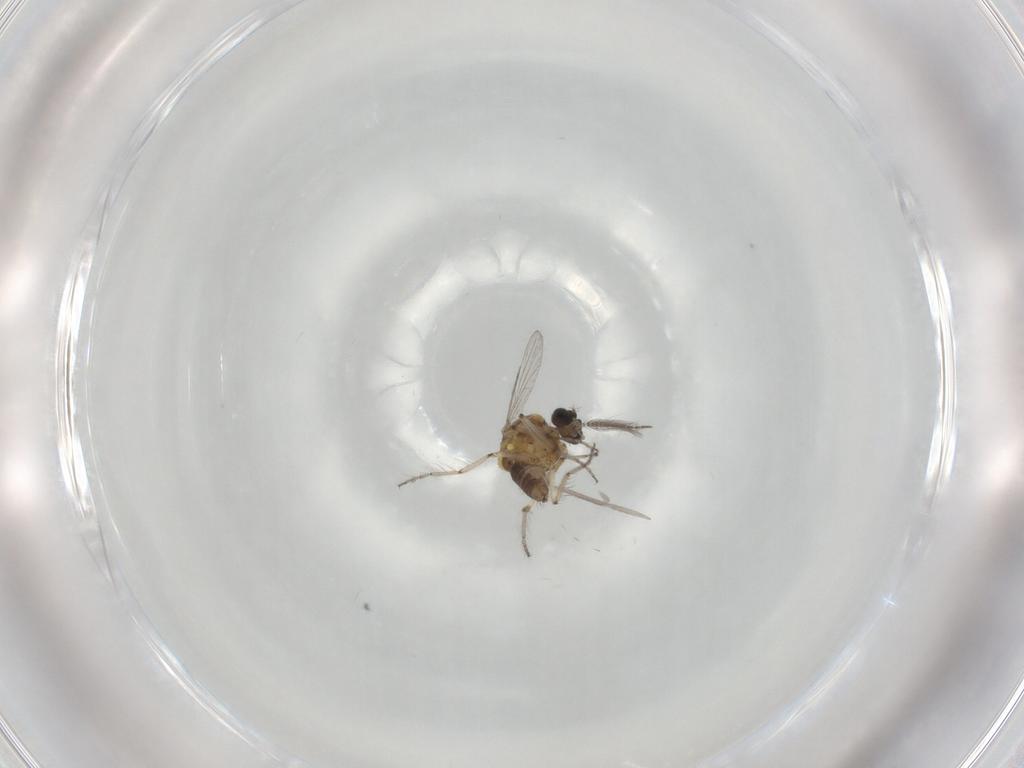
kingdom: Animalia
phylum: Arthropoda
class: Insecta
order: Diptera
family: Ceratopogonidae
